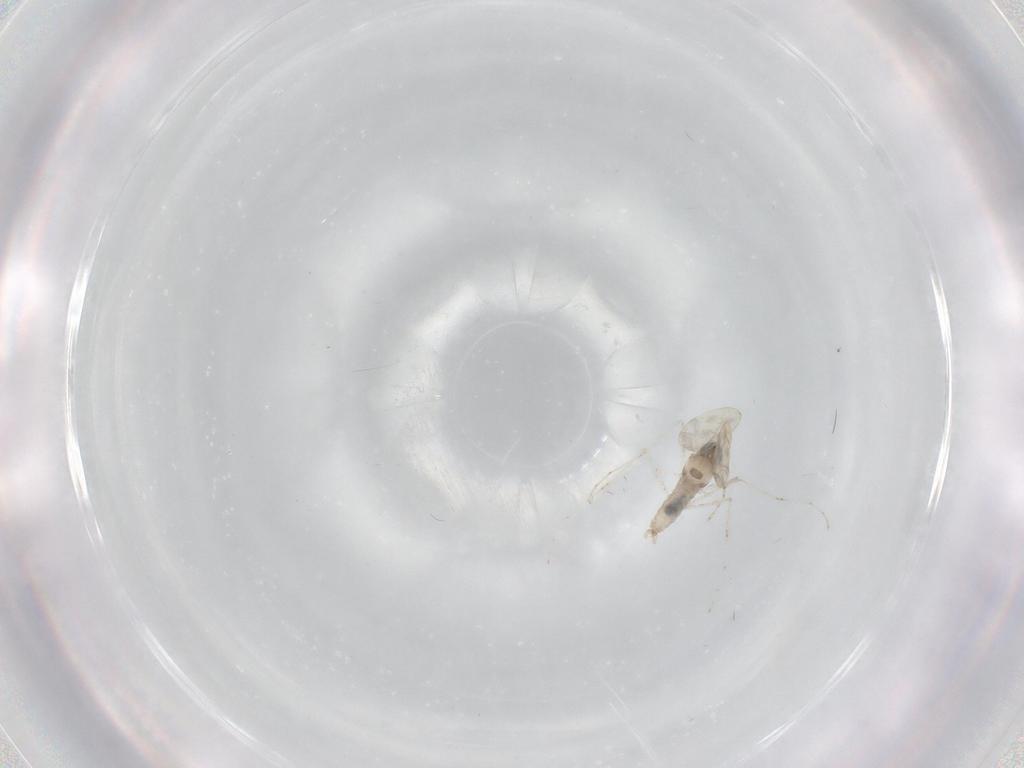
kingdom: Animalia
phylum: Arthropoda
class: Insecta
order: Diptera
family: Cecidomyiidae
